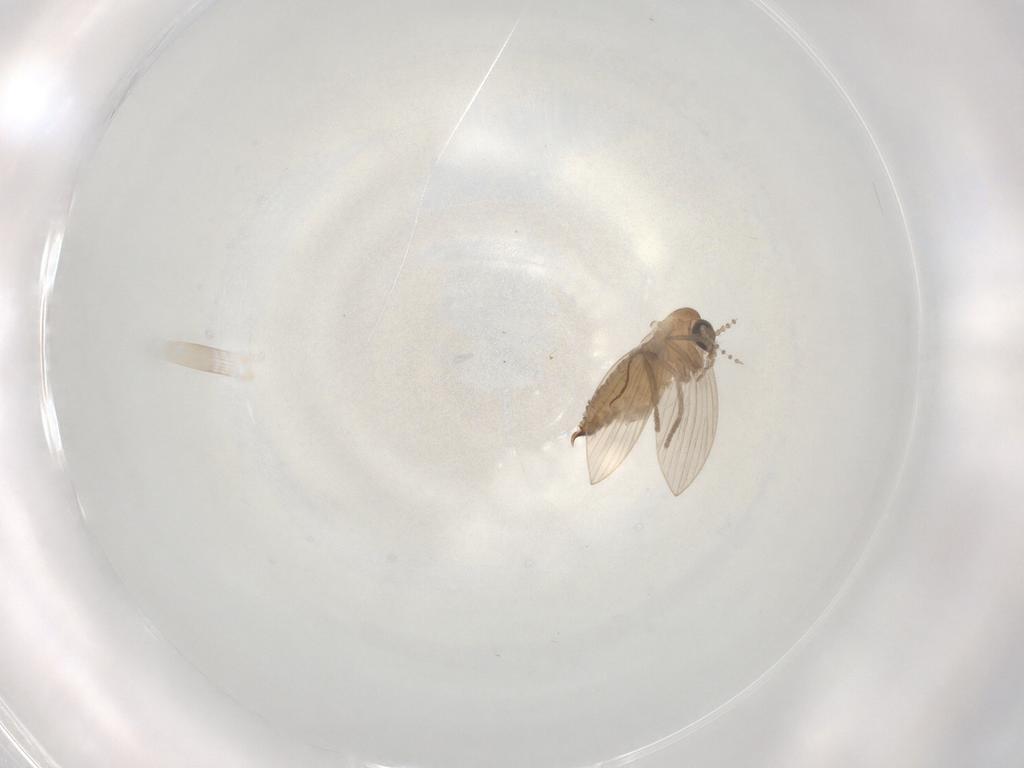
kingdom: Animalia
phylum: Arthropoda
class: Insecta
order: Diptera
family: Psychodidae
